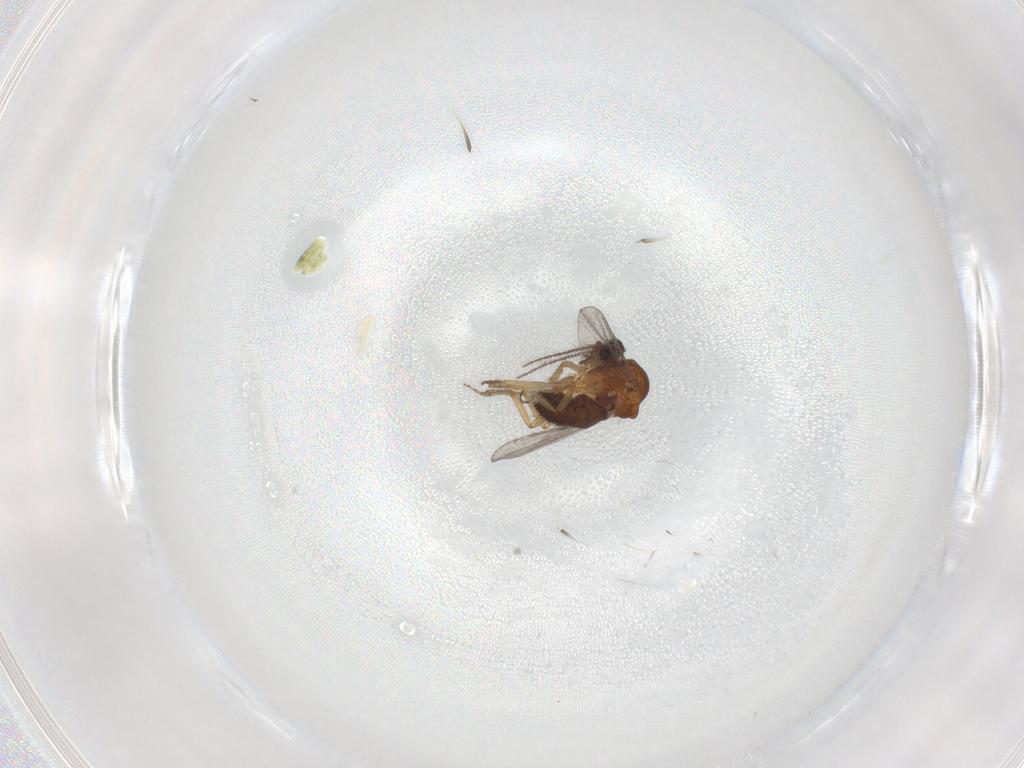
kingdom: Animalia
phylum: Arthropoda
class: Insecta
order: Diptera
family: Ceratopogonidae
